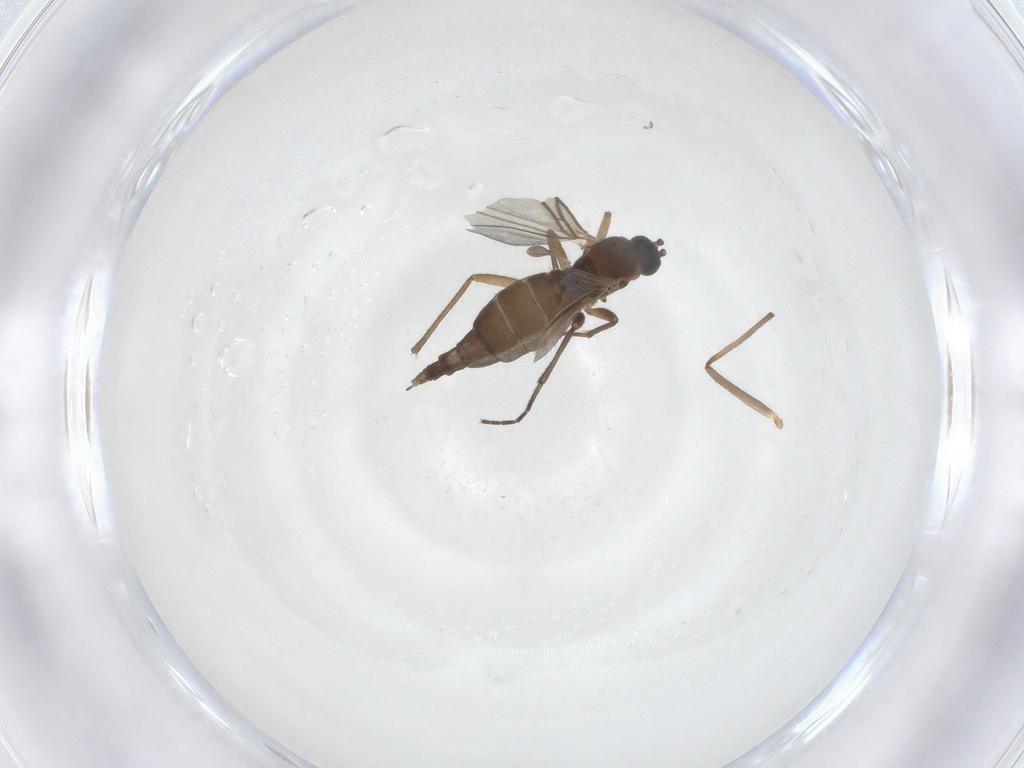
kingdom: Animalia
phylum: Arthropoda
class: Insecta
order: Diptera
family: Sciaridae
